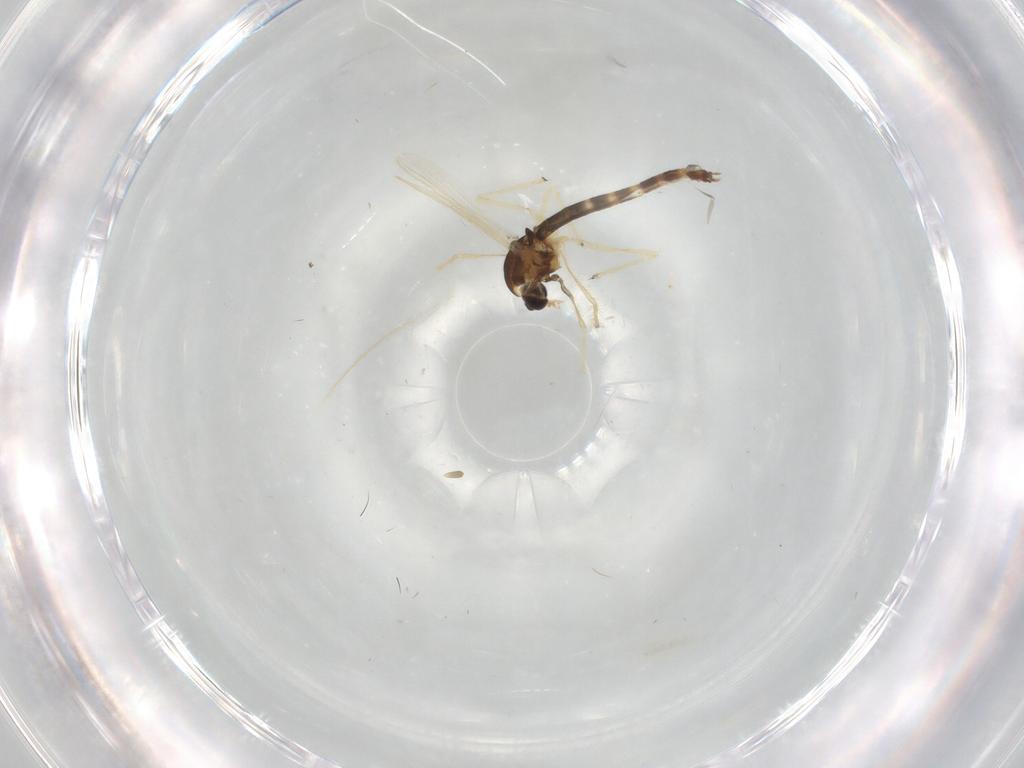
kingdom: Animalia
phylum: Arthropoda
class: Insecta
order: Diptera
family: Chironomidae
